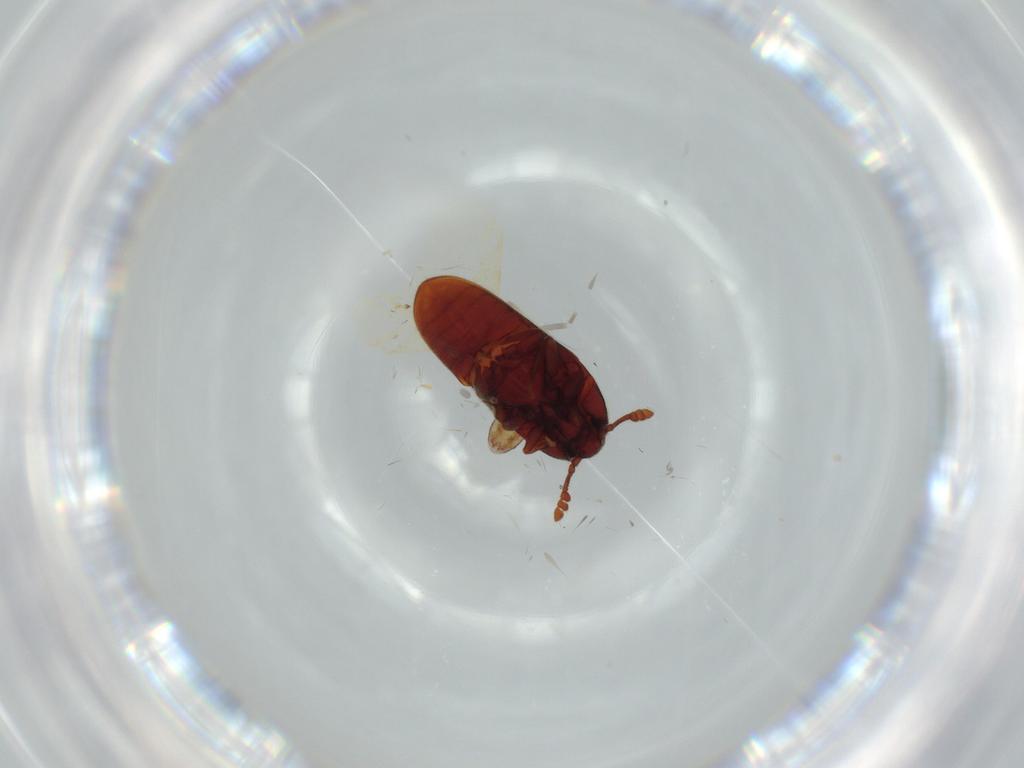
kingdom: Animalia
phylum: Arthropoda
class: Insecta
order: Coleoptera
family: Throscidae
